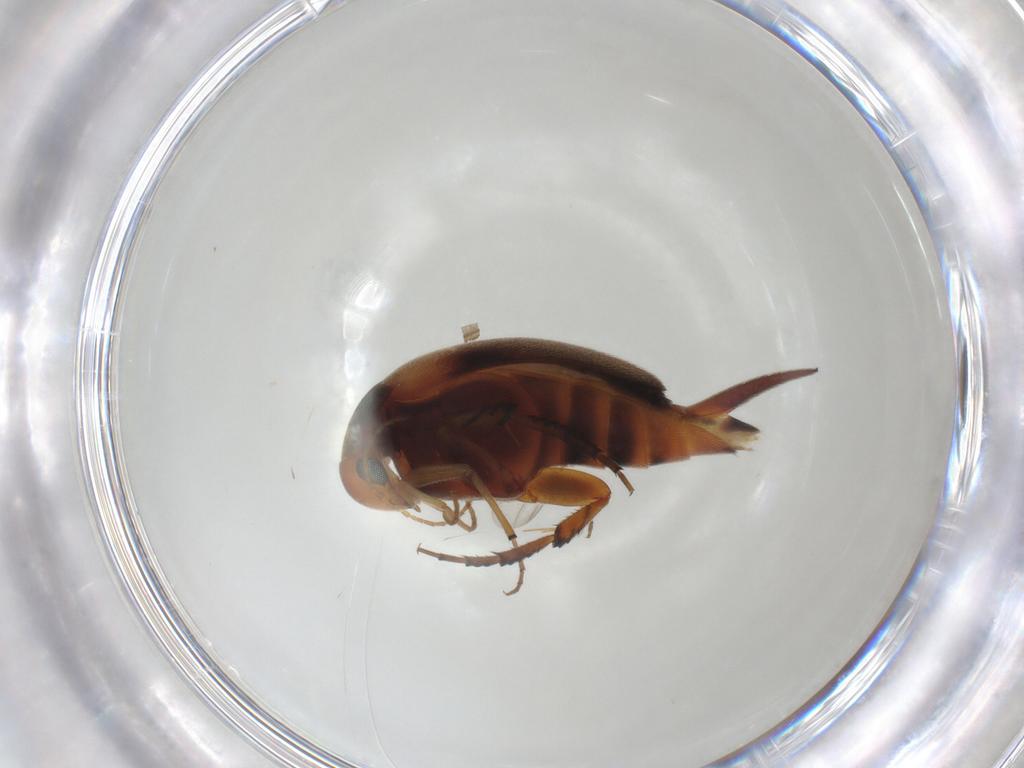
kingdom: Animalia
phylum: Arthropoda
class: Insecta
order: Coleoptera
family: Mordellidae
